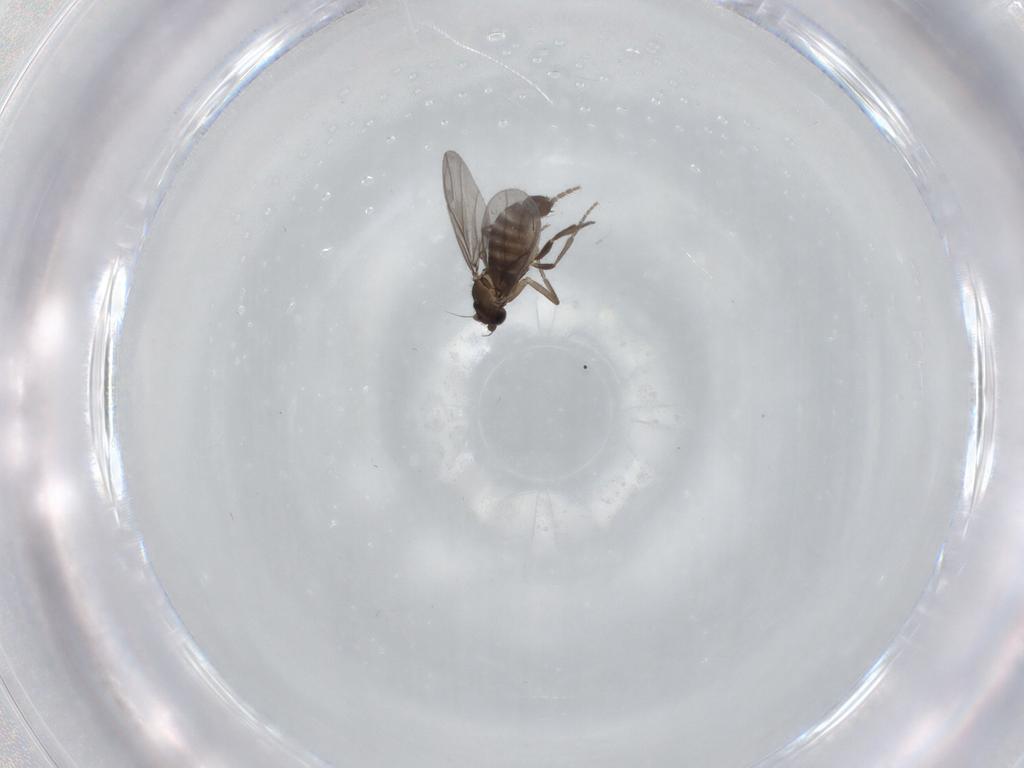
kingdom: Animalia
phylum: Arthropoda
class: Insecta
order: Diptera
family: Phoridae
